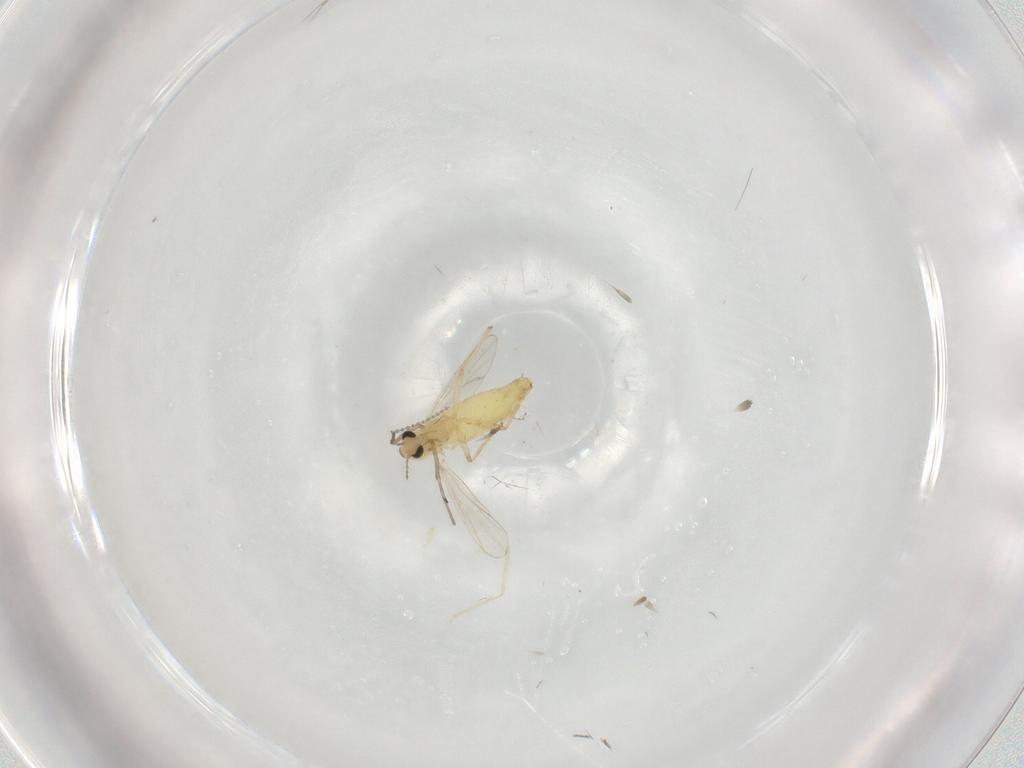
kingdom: Animalia
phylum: Arthropoda
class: Insecta
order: Diptera
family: Chironomidae
